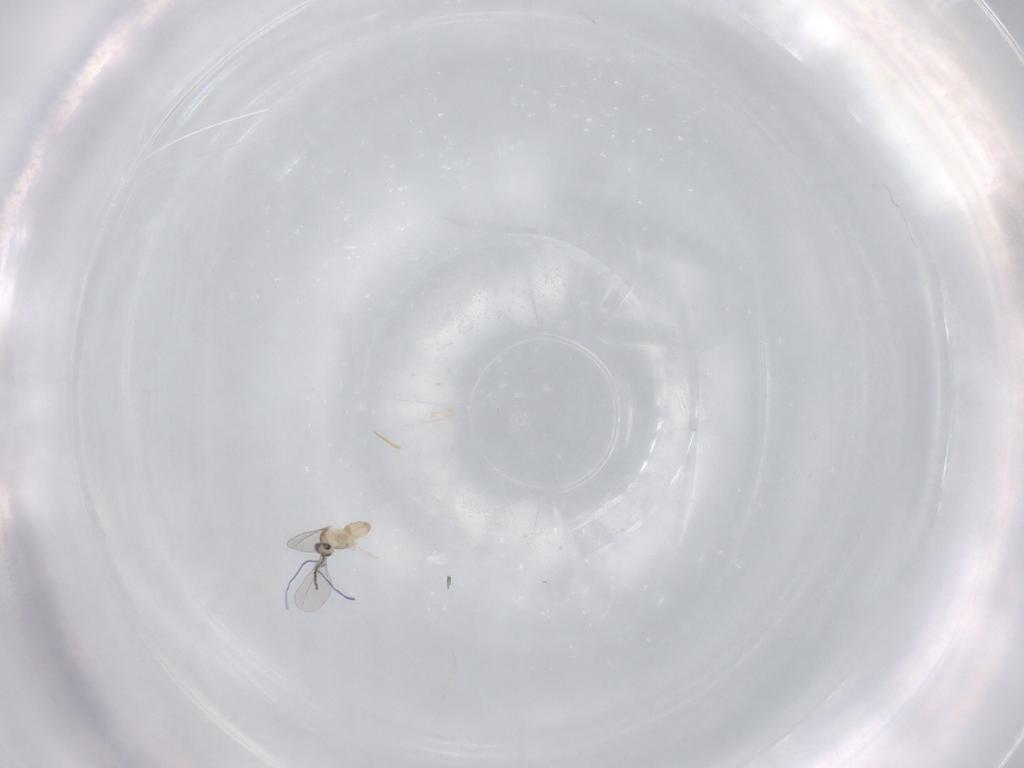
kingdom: Animalia
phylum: Arthropoda
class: Insecta
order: Diptera
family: Cecidomyiidae
